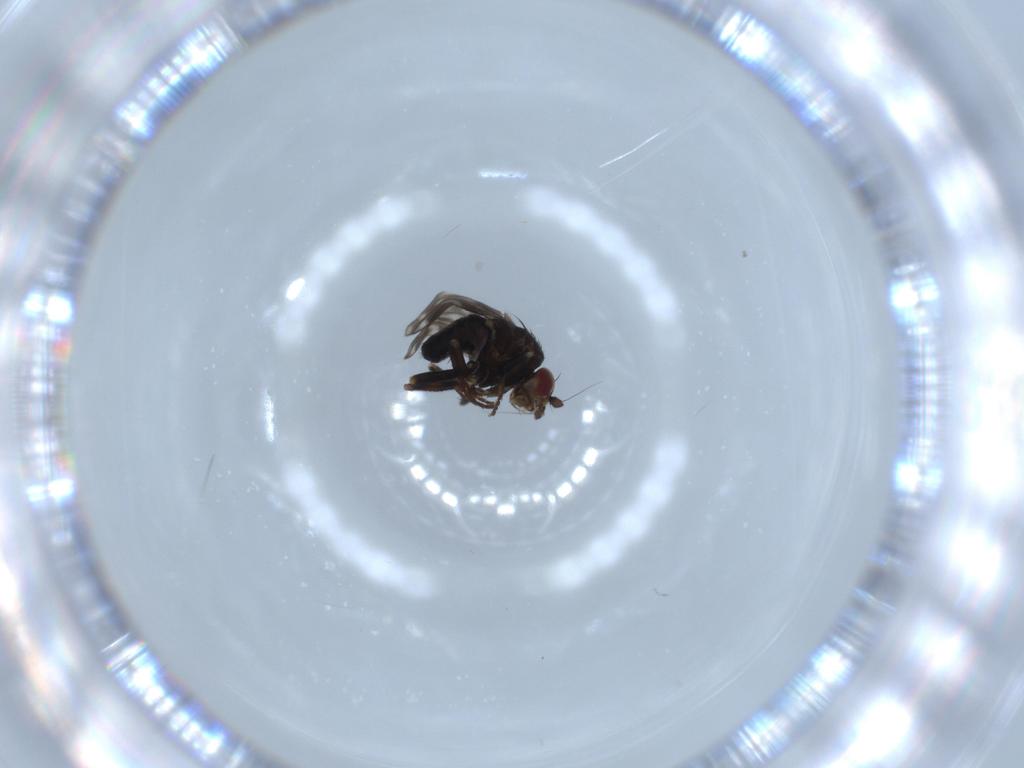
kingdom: Animalia
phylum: Arthropoda
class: Insecta
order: Diptera
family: Sphaeroceridae
